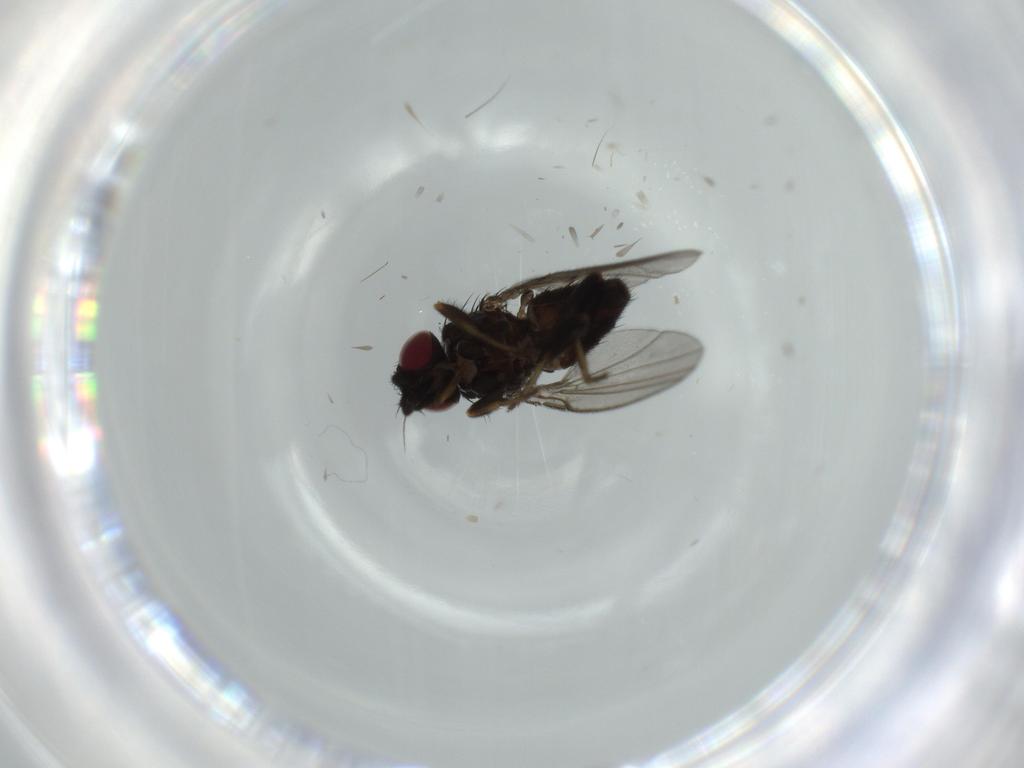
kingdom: Animalia
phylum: Arthropoda
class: Insecta
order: Diptera
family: Milichiidae
